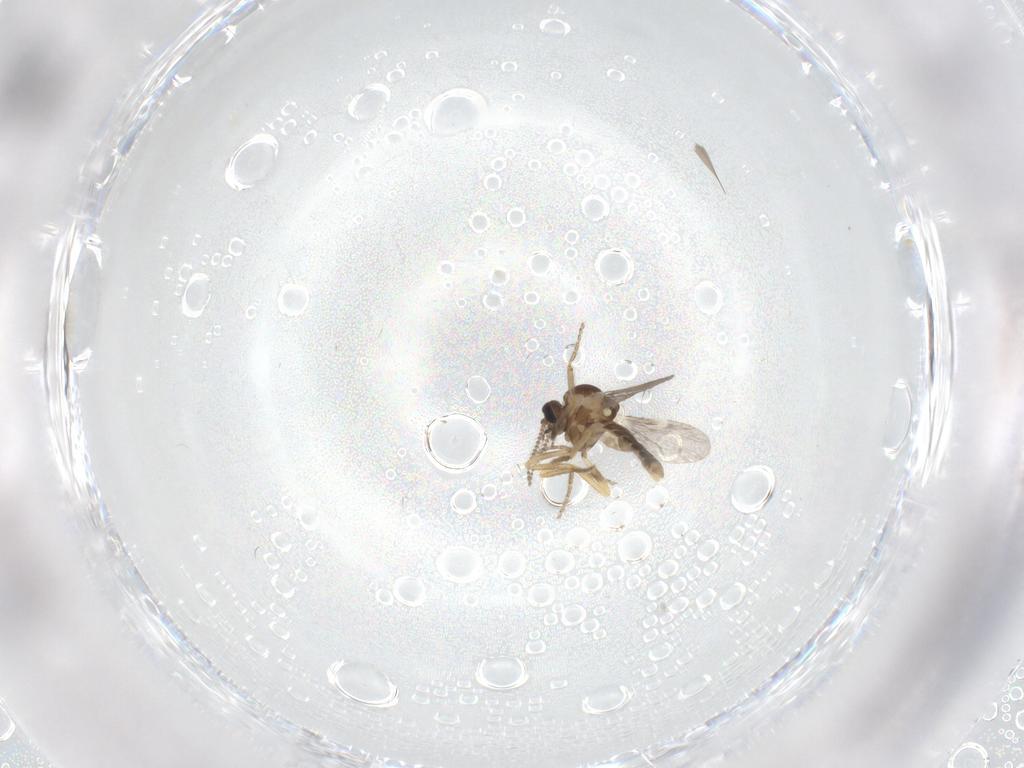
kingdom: Animalia
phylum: Arthropoda
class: Insecta
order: Diptera
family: Ceratopogonidae
